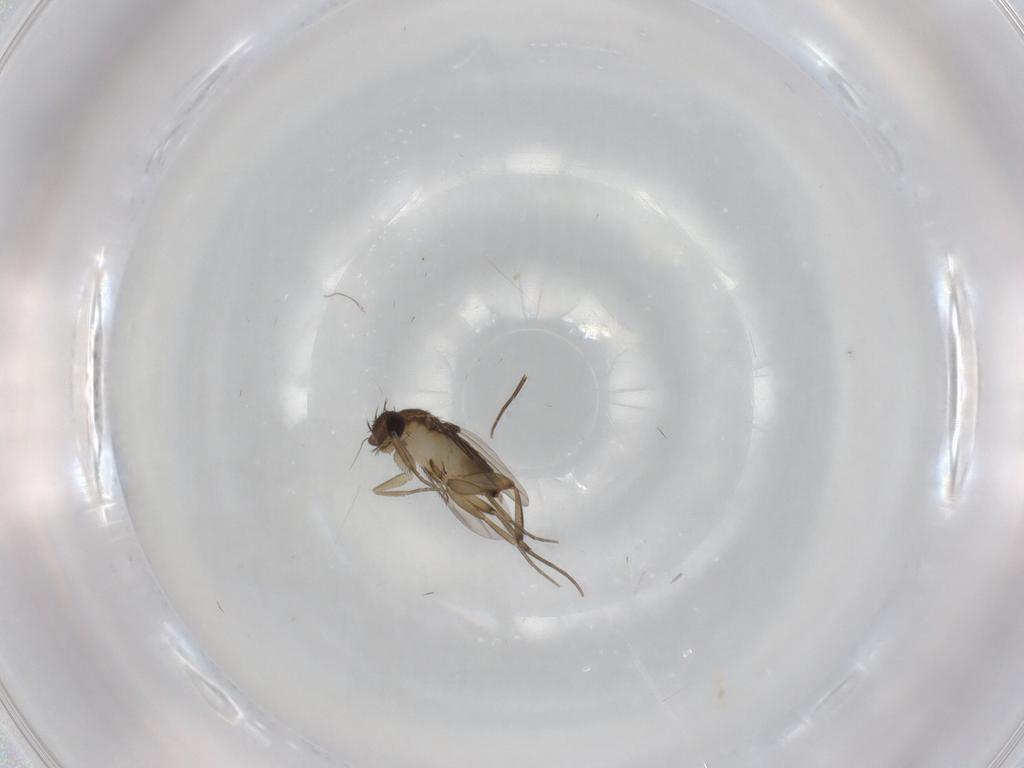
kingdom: Animalia
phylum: Arthropoda
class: Insecta
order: Diptera
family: Phoridae
